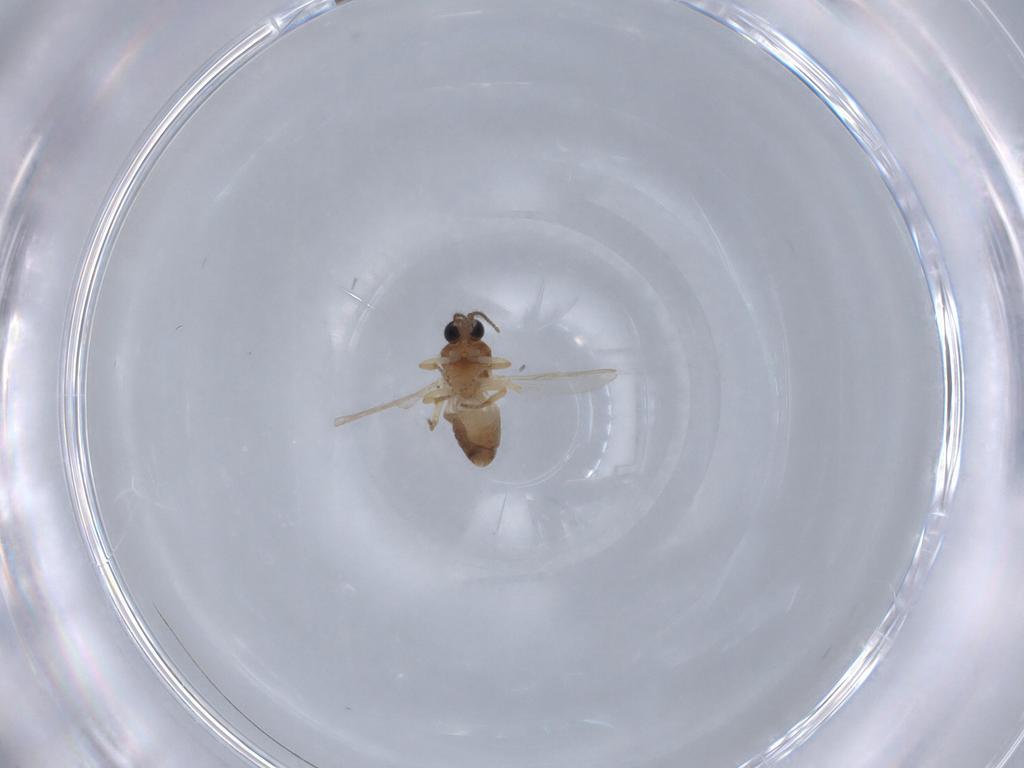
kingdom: Animalia
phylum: Arthropoda
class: Insecta
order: Diptera
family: Ceratopogonidae
